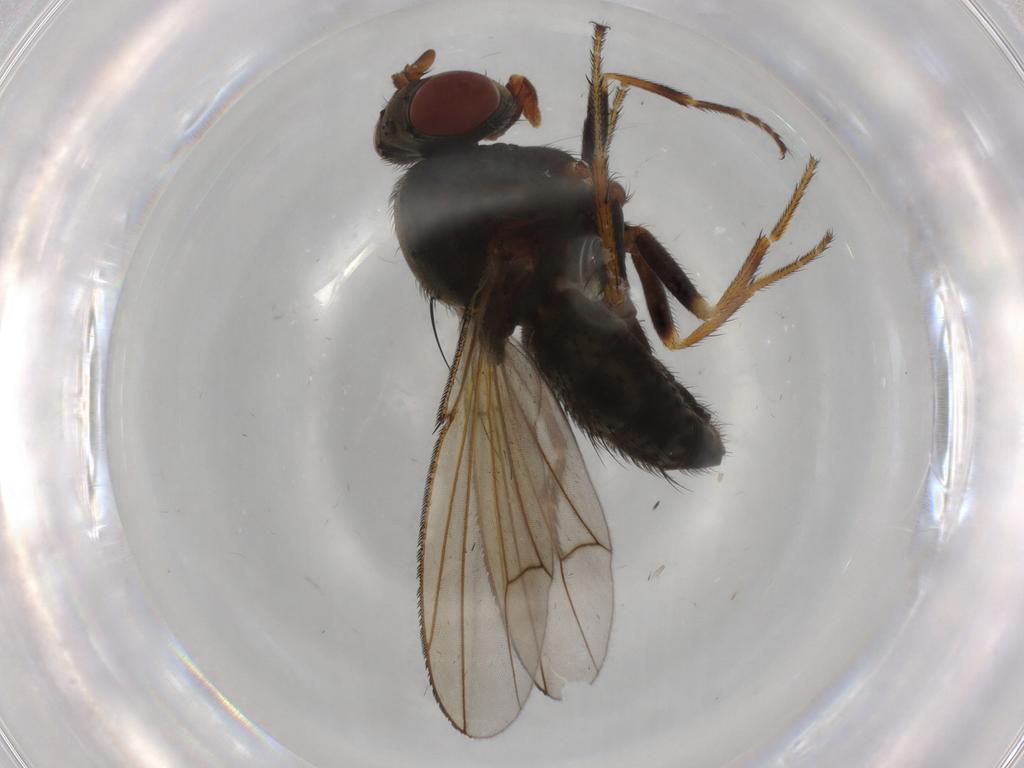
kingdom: Animalia
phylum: Arthropoda
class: Insecta
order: Diptera
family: Ephydridae
